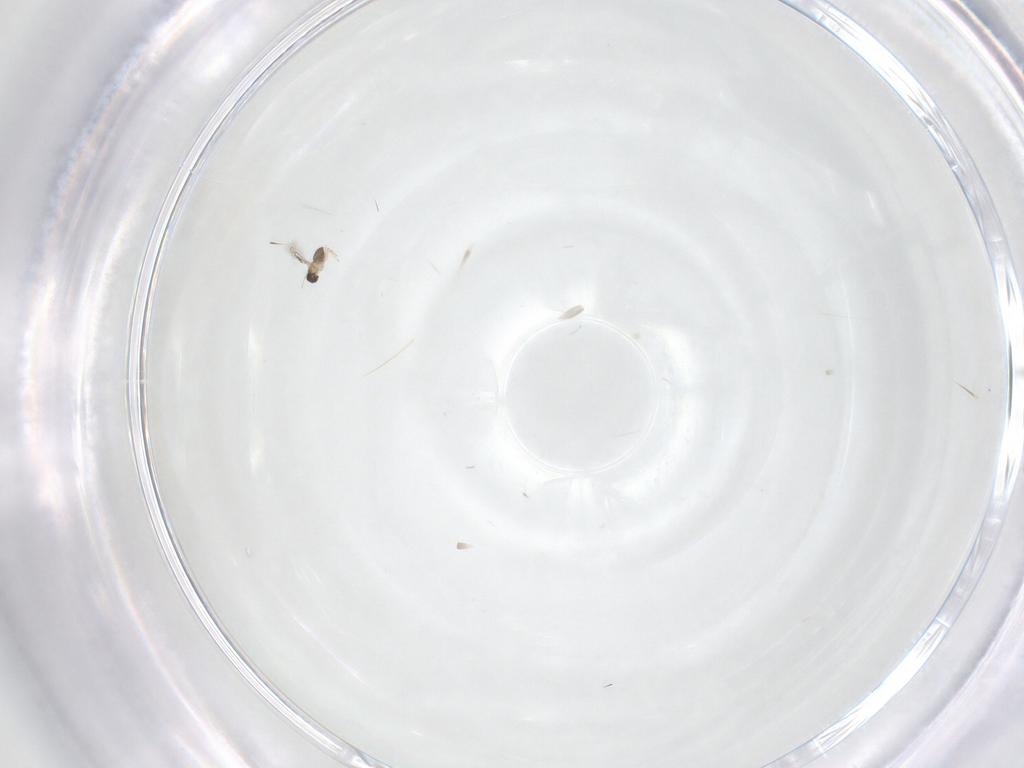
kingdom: Animalia
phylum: Arthropoda
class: Insecta
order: Hymenoptera
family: Mymaridae
